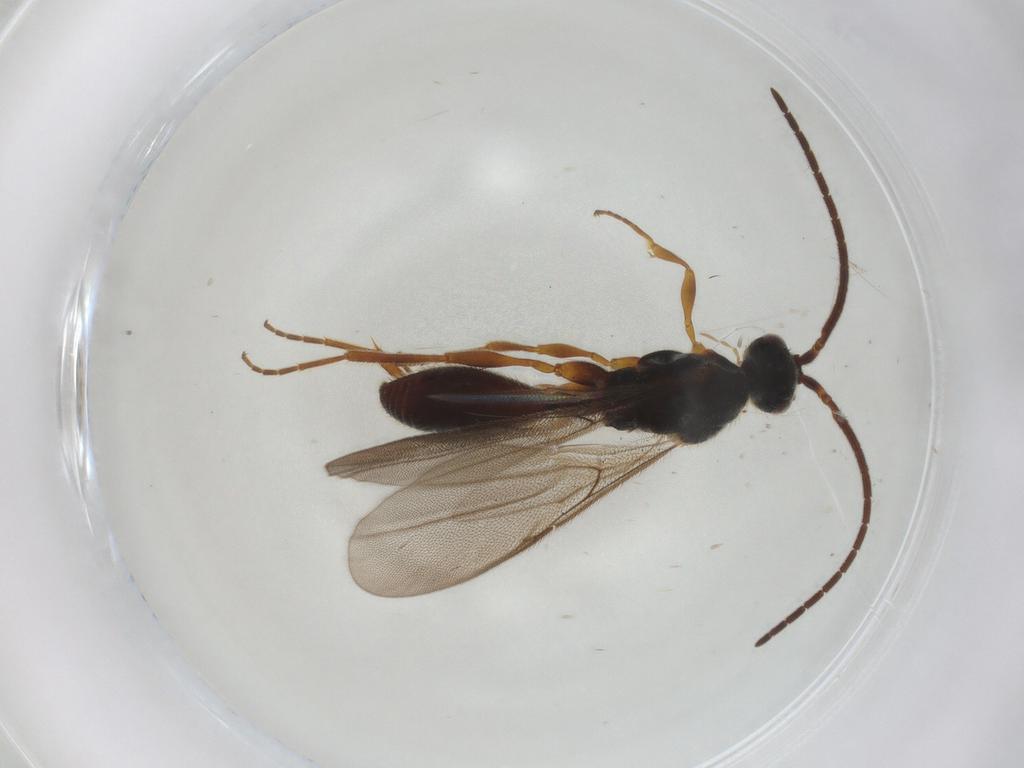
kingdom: Animalia
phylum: Arthropoda
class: Insecta
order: Hymenoptera
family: Diapriidae
